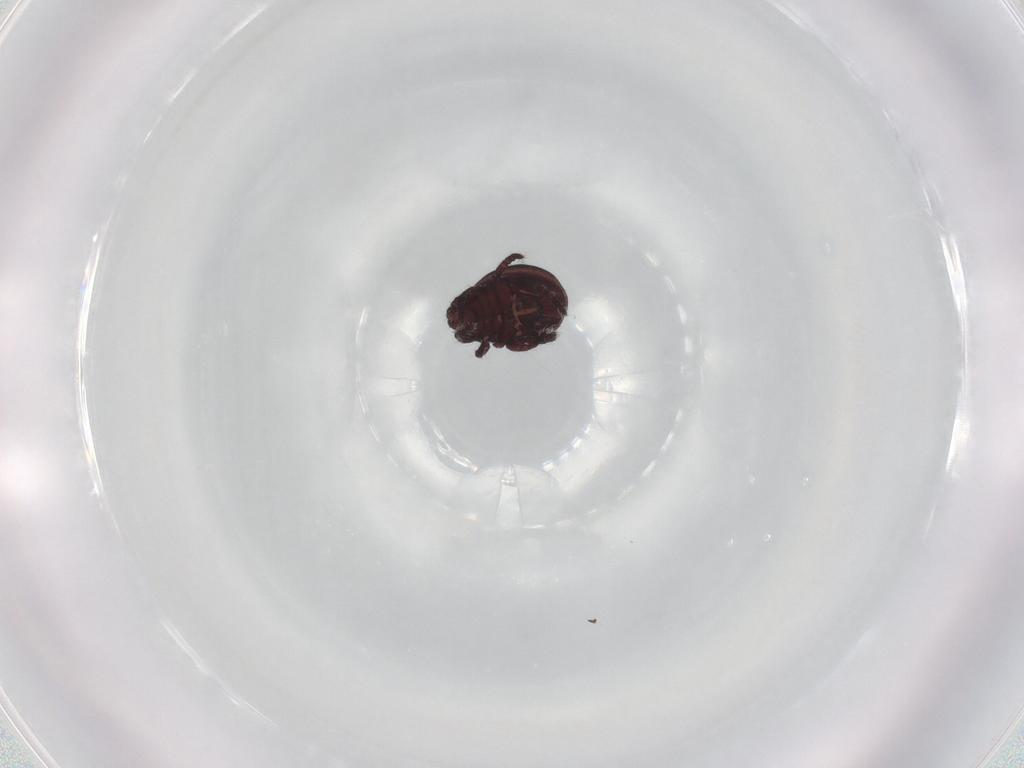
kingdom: Animalia
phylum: Arthropoda
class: Arachnida
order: Sarcoptiformes
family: Hermanniidae
